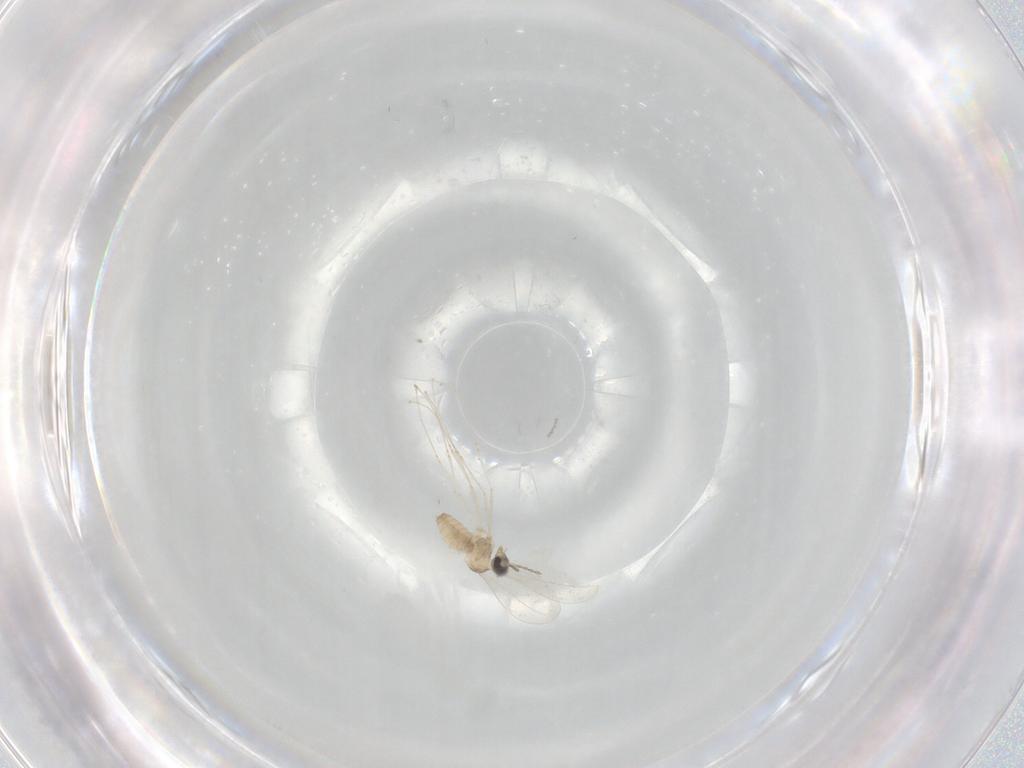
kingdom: Animalia
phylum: Arthropoda
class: Insecta
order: Diptera
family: Cecidomyiidae
